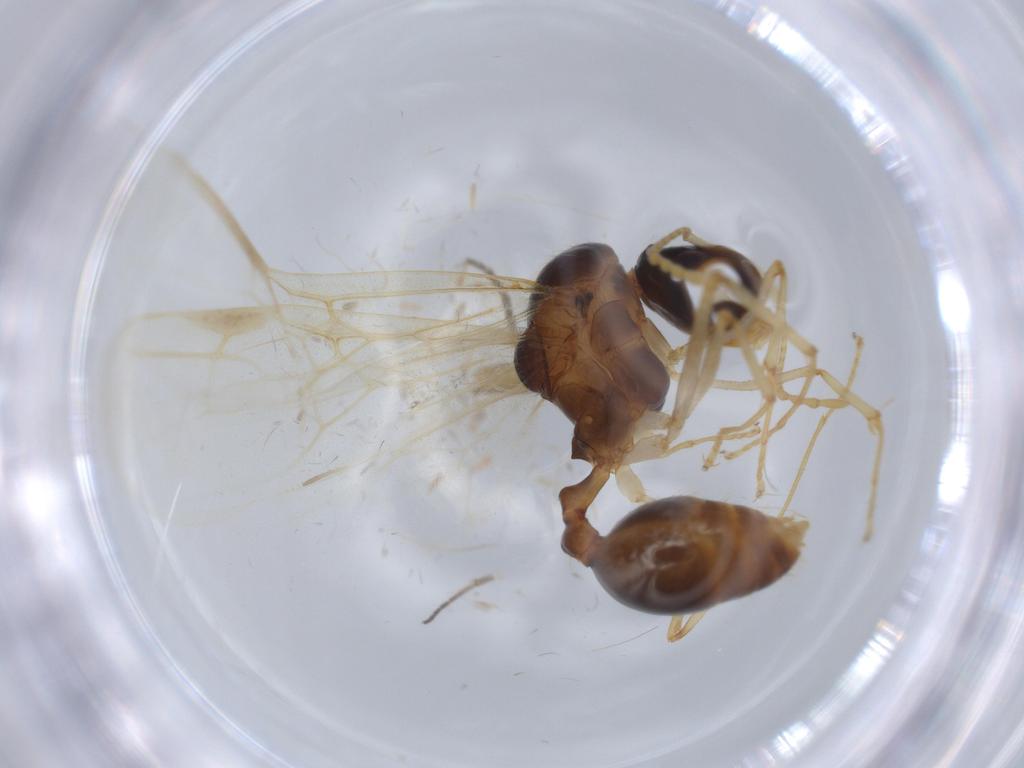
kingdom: Animalia
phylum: Arthropoda
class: Insecta
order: Hymenoptera
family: Formicidae
